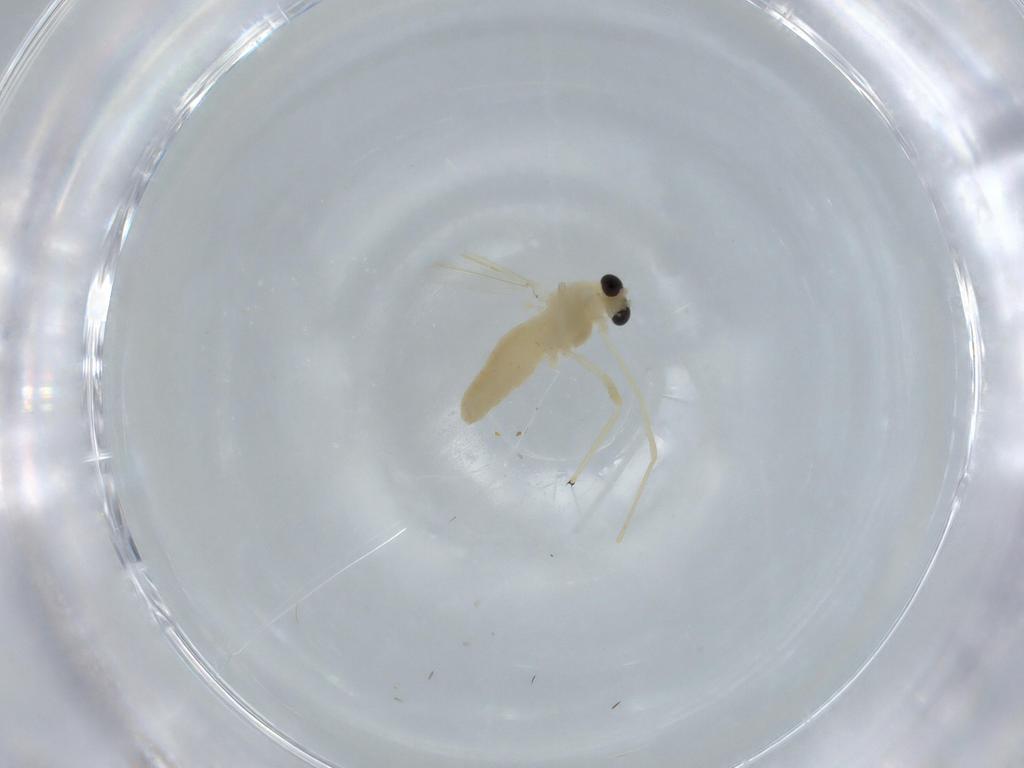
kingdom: Animalia
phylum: Arthropoda
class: Insecta
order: Diptera
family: Chironomidae
